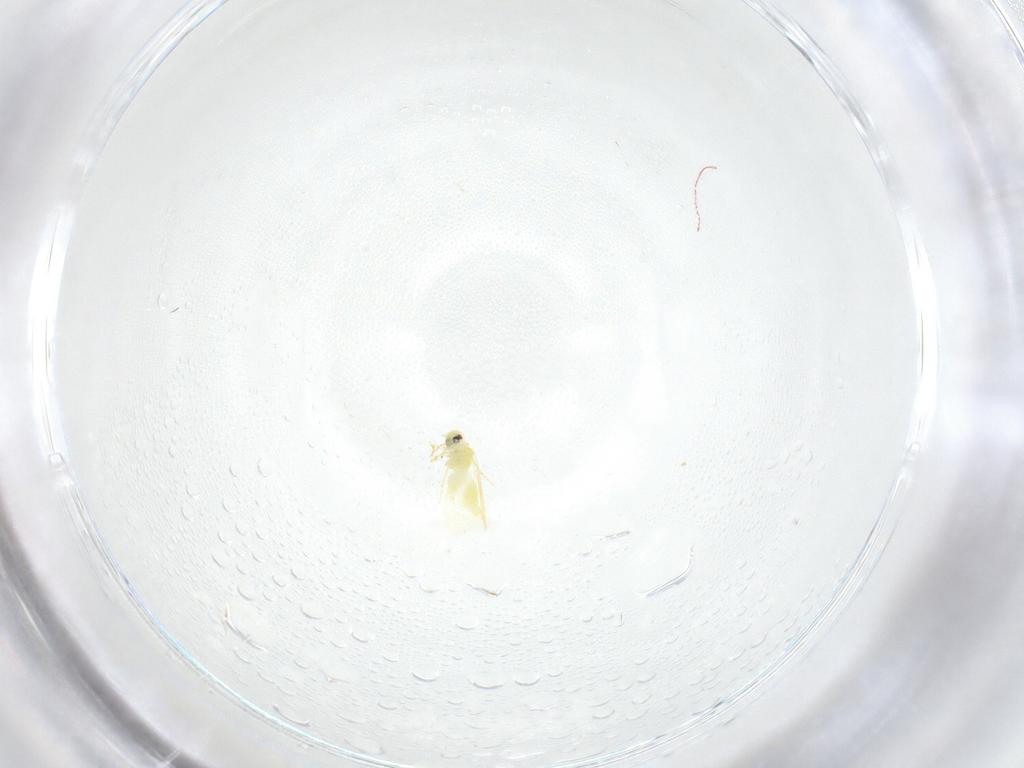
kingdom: Animalia
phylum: Arthropoda
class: Insecta
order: Hemiptera
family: Aleyrodidae
